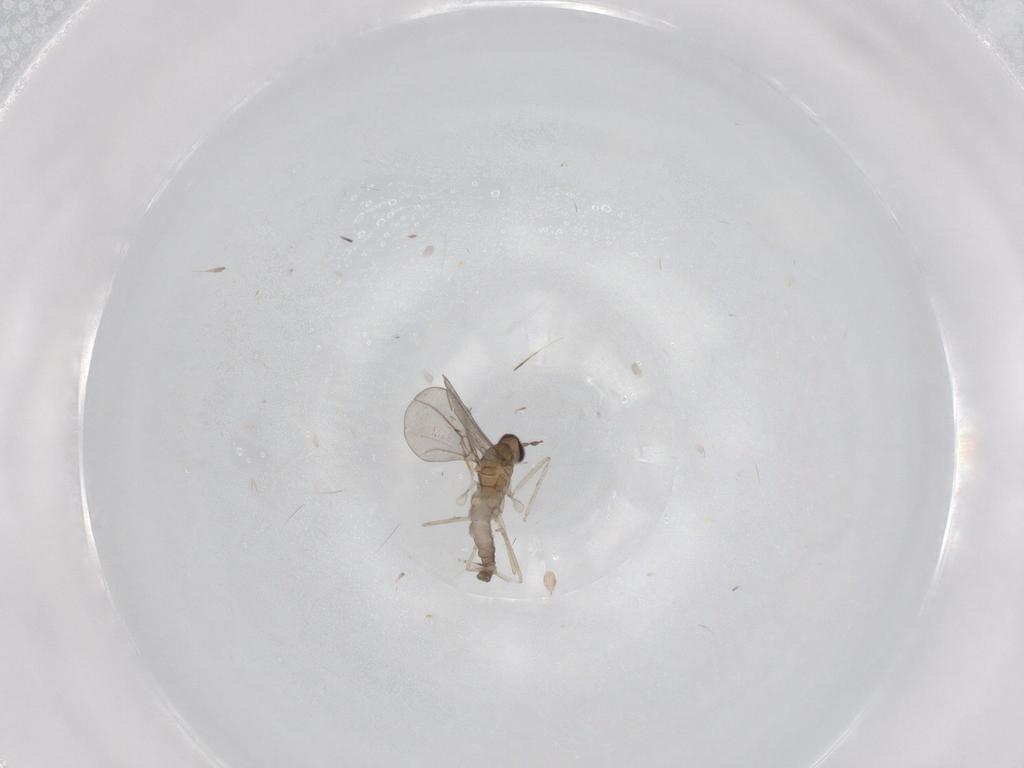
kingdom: Animalia
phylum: Arthropoda
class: Insecta
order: Diptera
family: Cecidomyiidae
